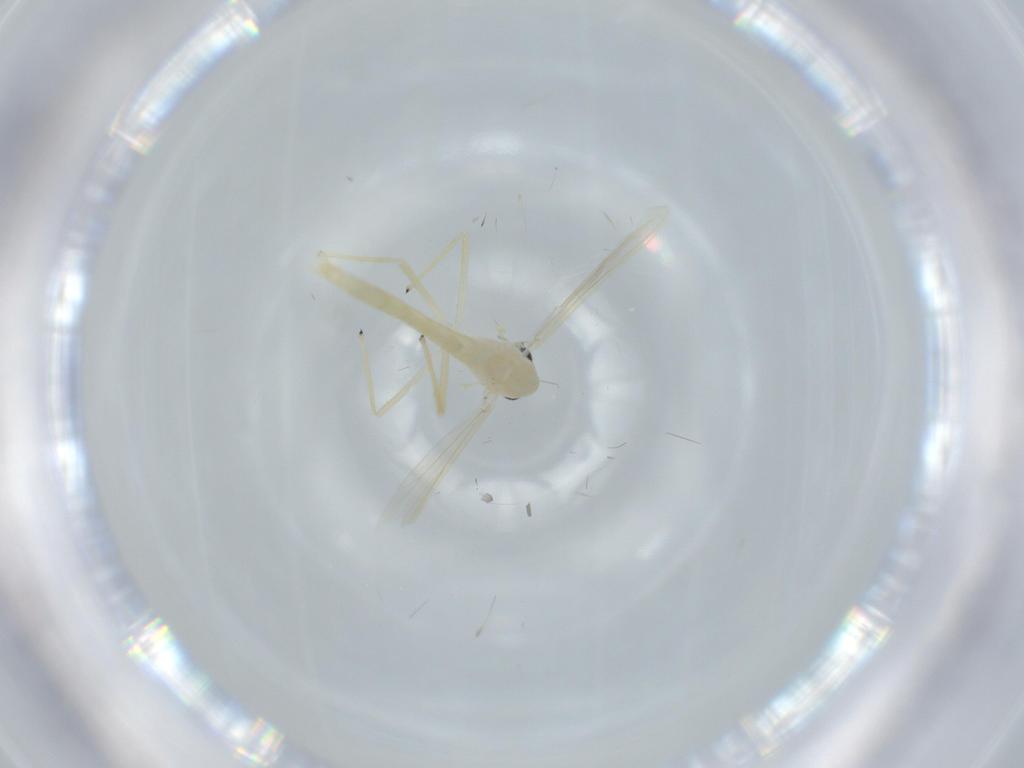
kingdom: Animalia
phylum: Arthropoda
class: Insecta
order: Diptera
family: Chironomidae
